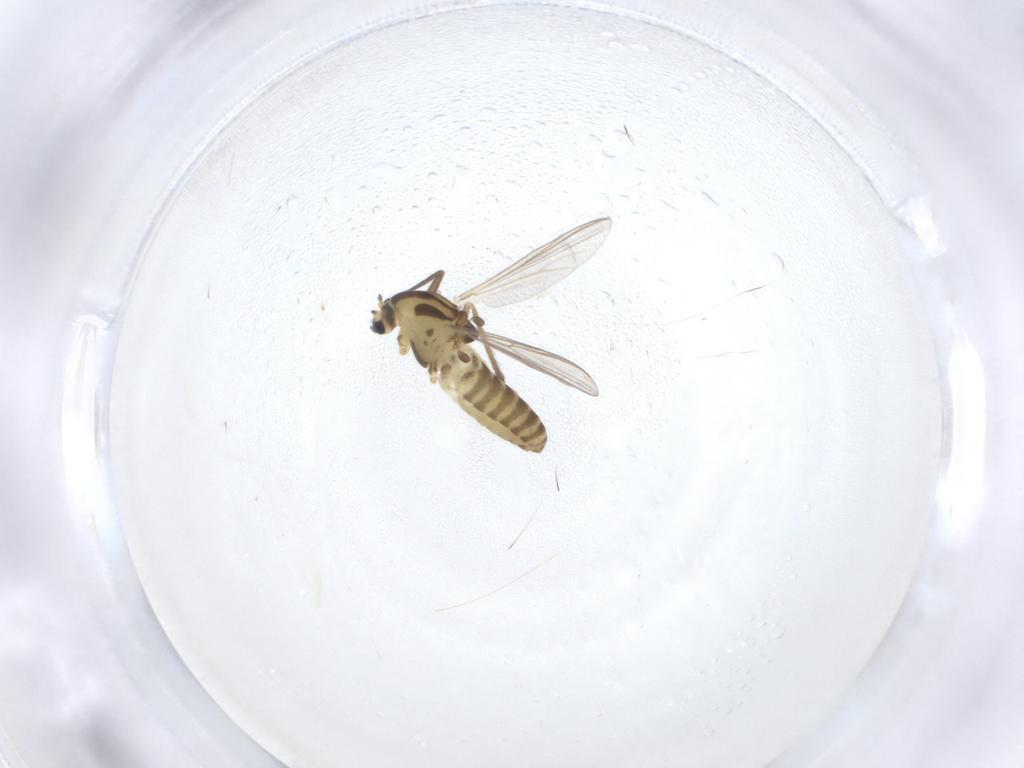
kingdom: Animalia
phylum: Arthropoda
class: Insecta
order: Diptera
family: Chironomidae
